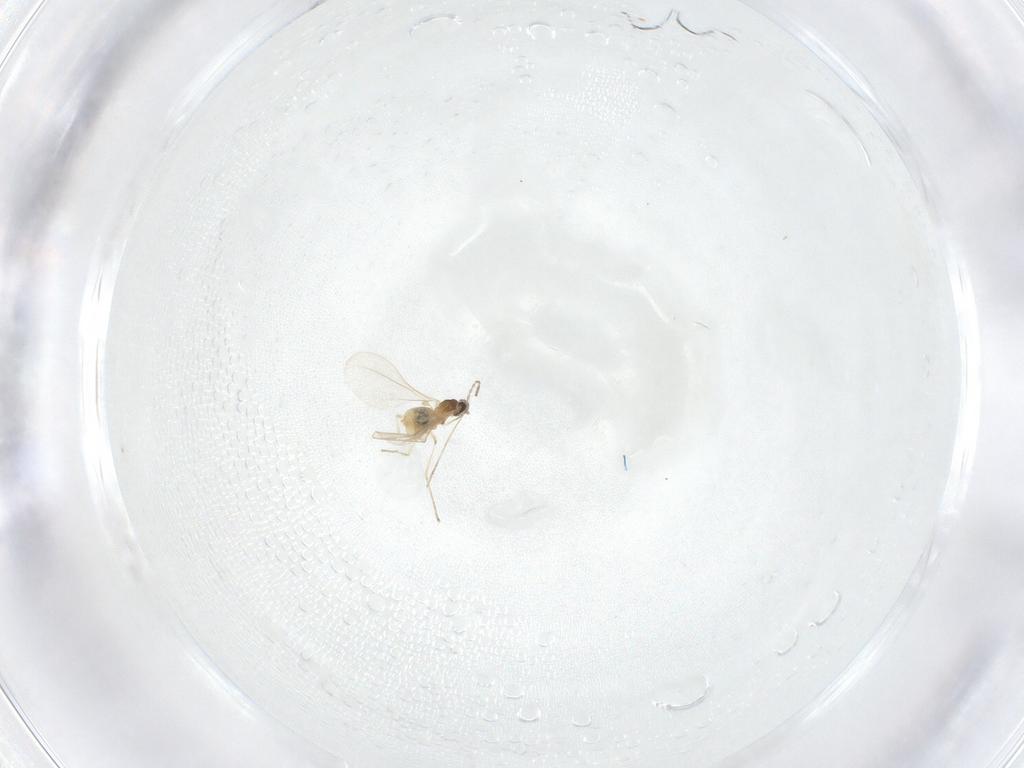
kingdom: Animalia
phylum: Arthropoda
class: Insecta
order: Diptera
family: Cecidomyiidae
